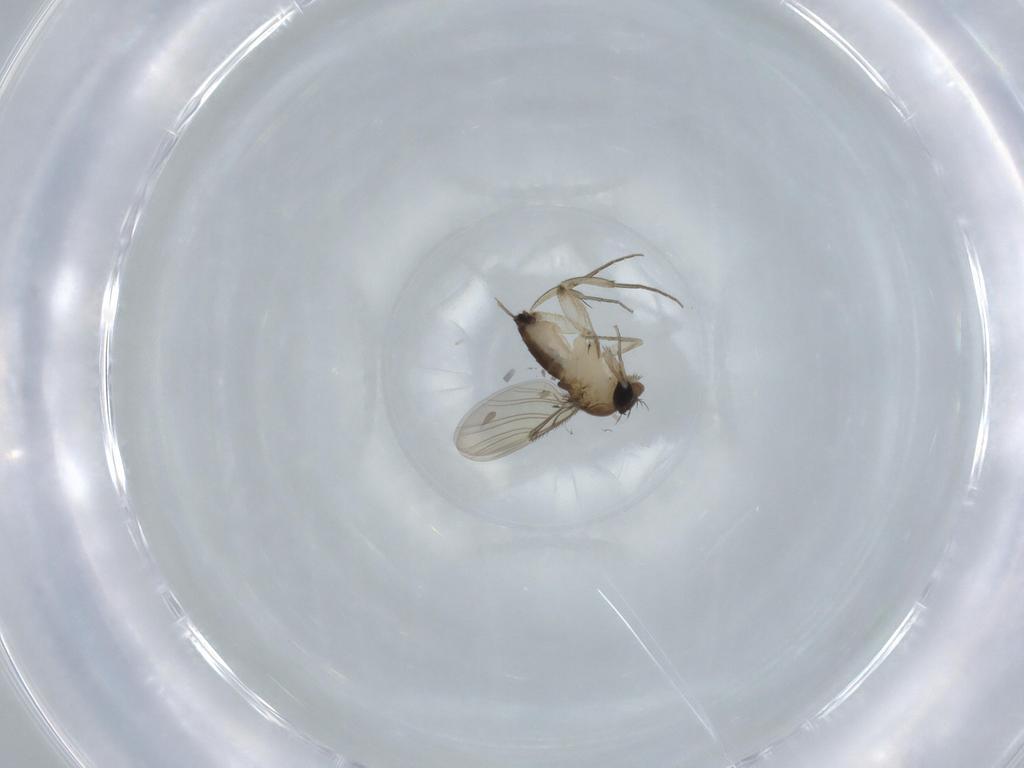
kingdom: Animalia
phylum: Arthropoda
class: Insecta
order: Diptera
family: Phoridae
